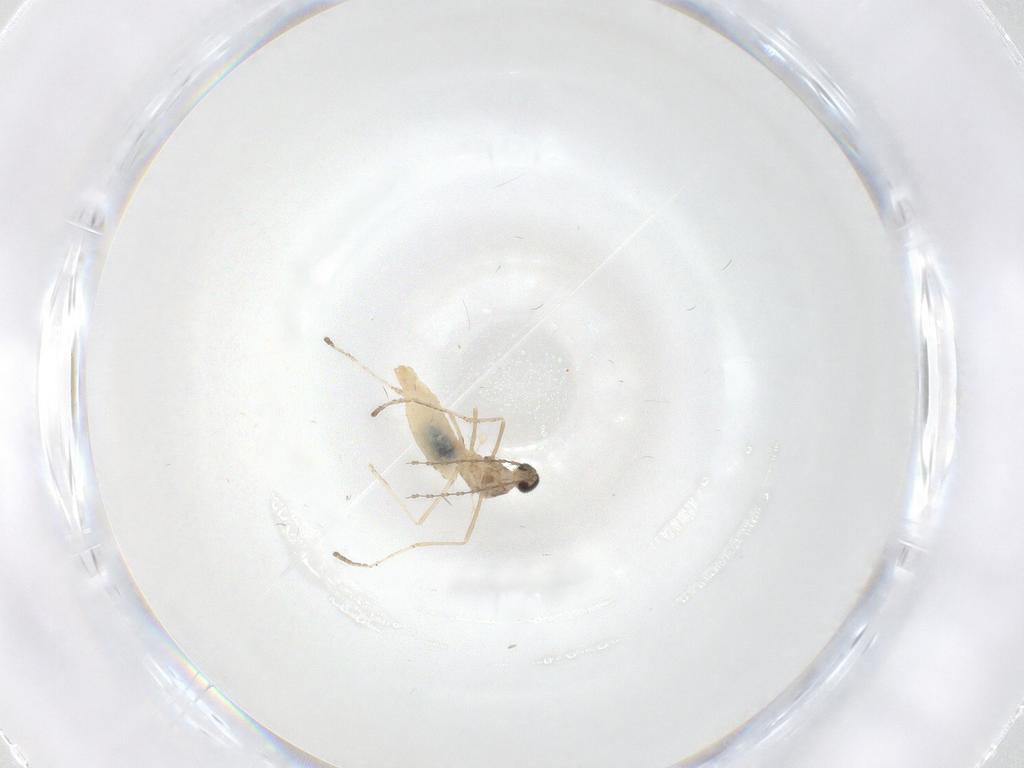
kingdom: Animalia
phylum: Arthropoda
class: Insecta
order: Diptera
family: Cecidomyiidae
